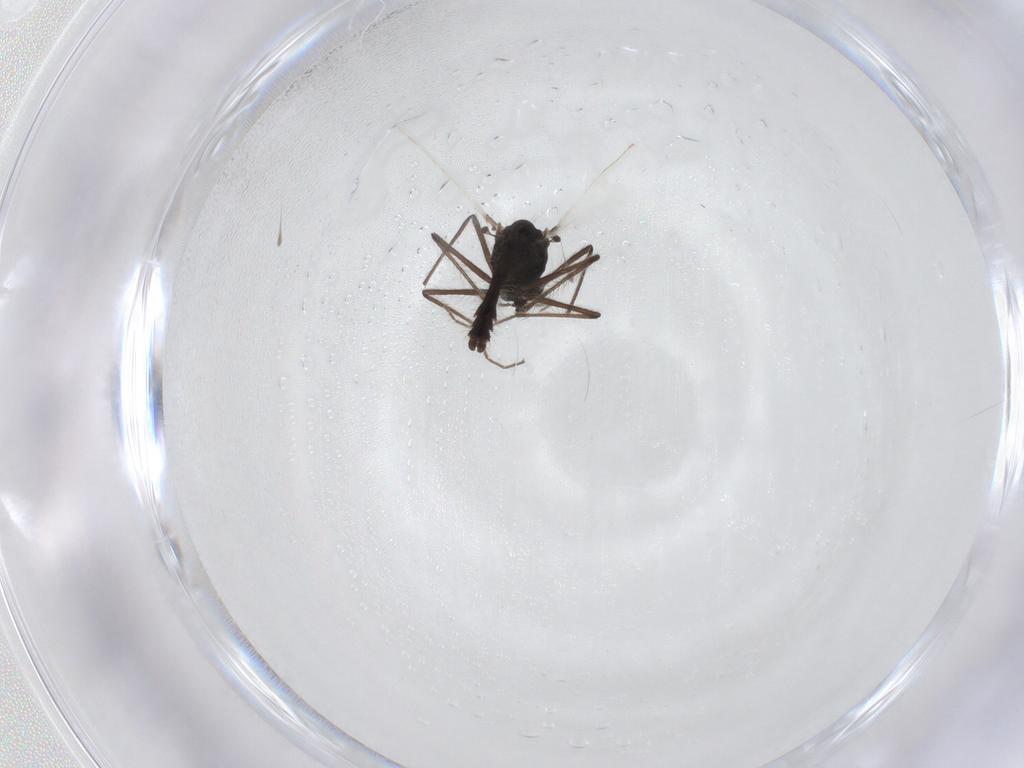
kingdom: Animalia
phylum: Arthropoda
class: Insecta
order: Diptera
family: Chironomidae
